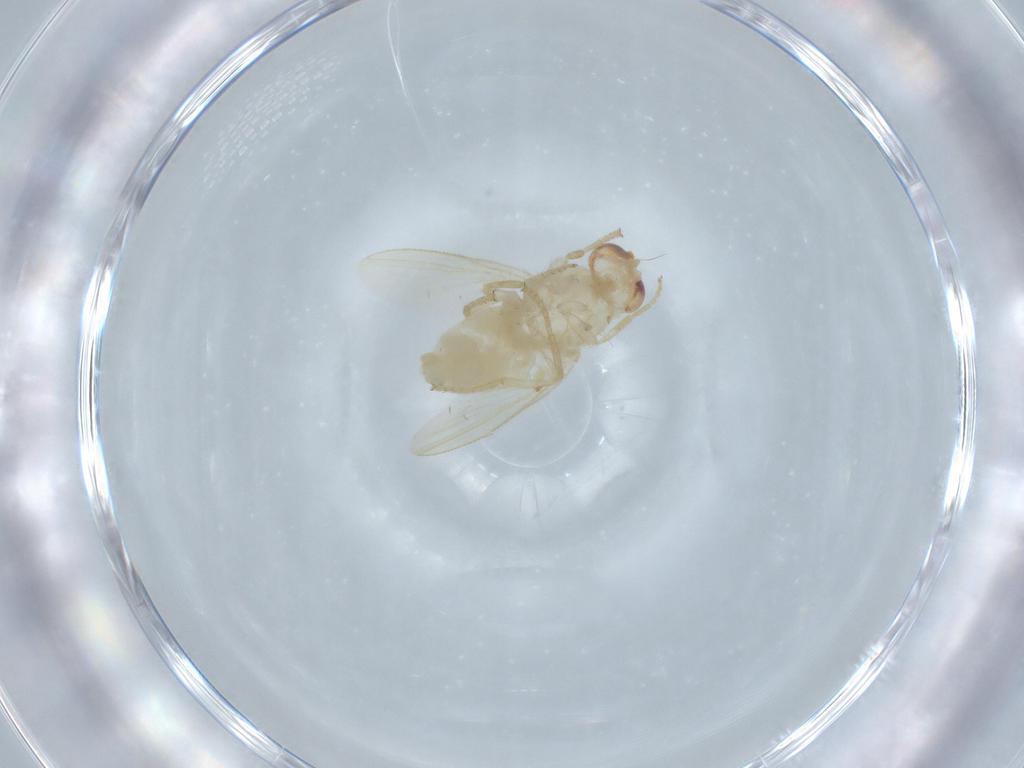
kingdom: Animalia
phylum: Arthropoda
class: Insecta
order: Diptera
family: Chyromyidae
